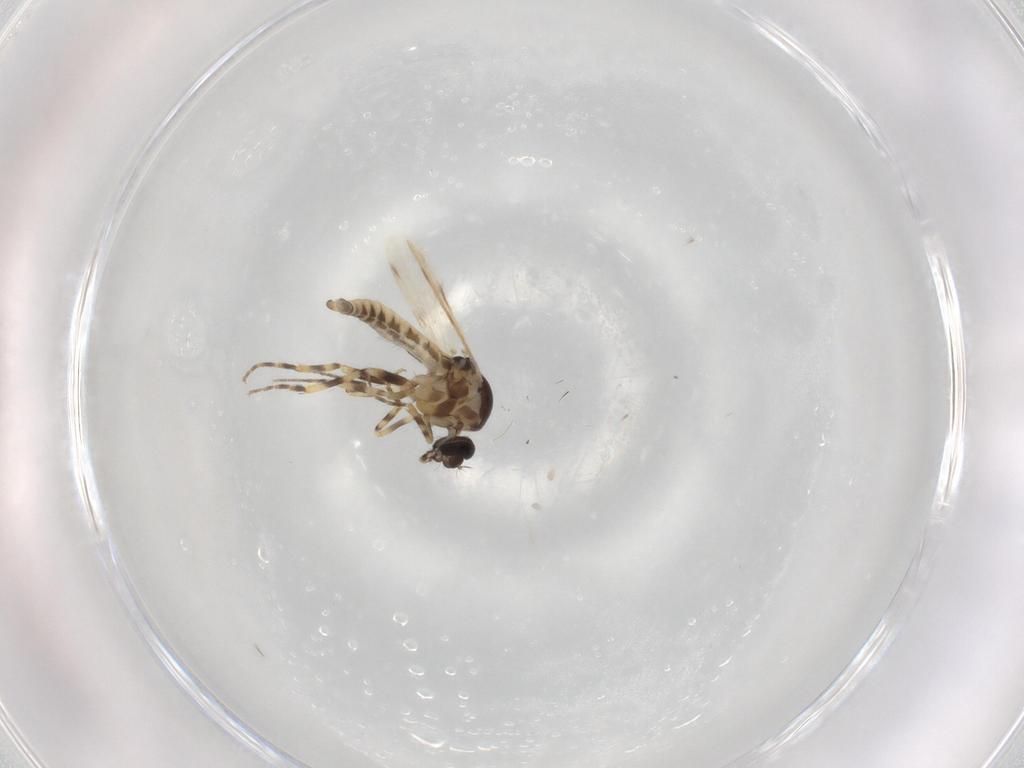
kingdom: Animalia
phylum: Arthropoda
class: Insecta
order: Diptera
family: Ceratopogonidae
